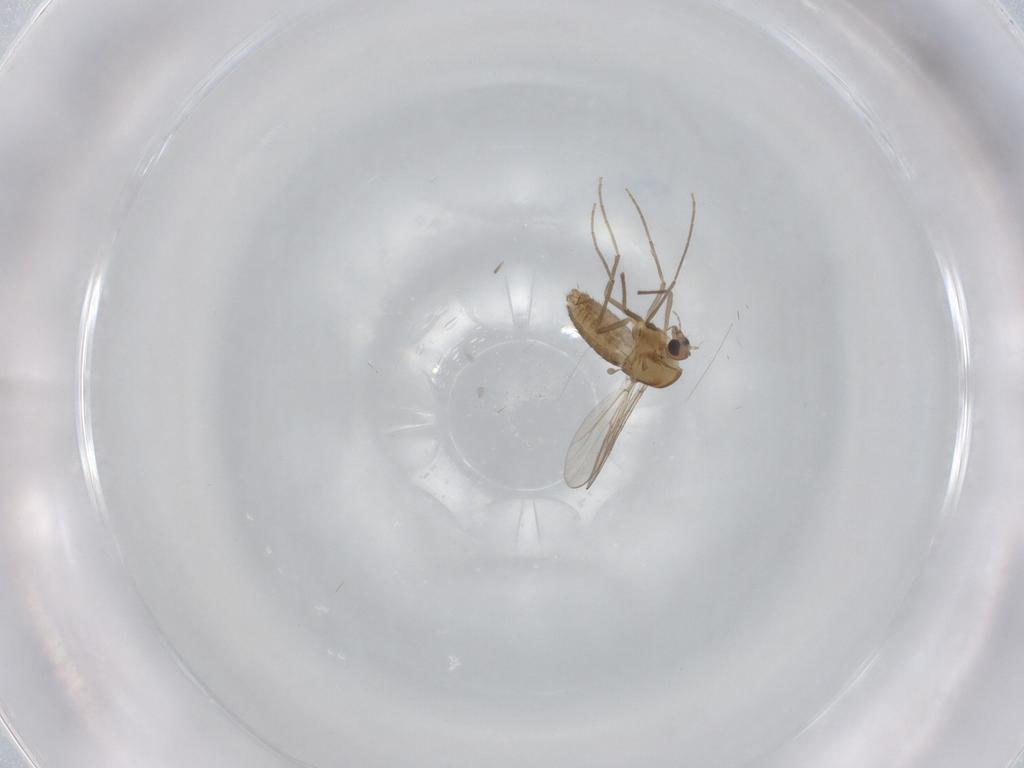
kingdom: Animalia
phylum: Arthropoda
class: Insecta
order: Diptera
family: Chironomidae
